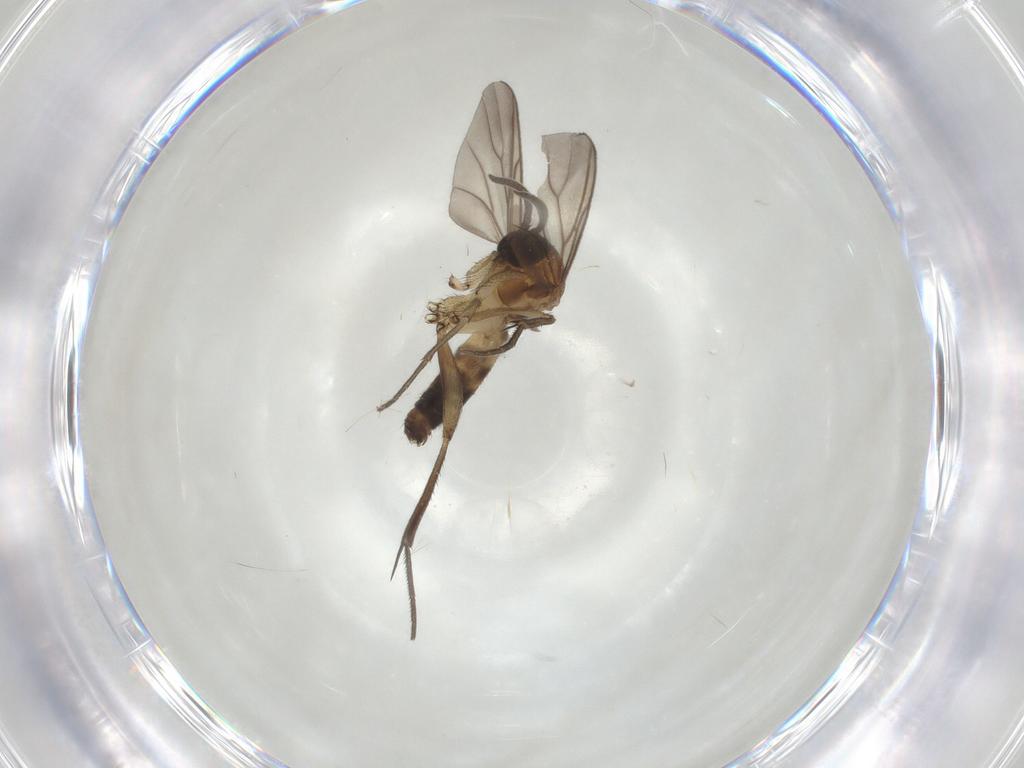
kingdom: Animalia
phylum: Arthropoda
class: Insecta
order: Diptera
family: Mycetophilidae
